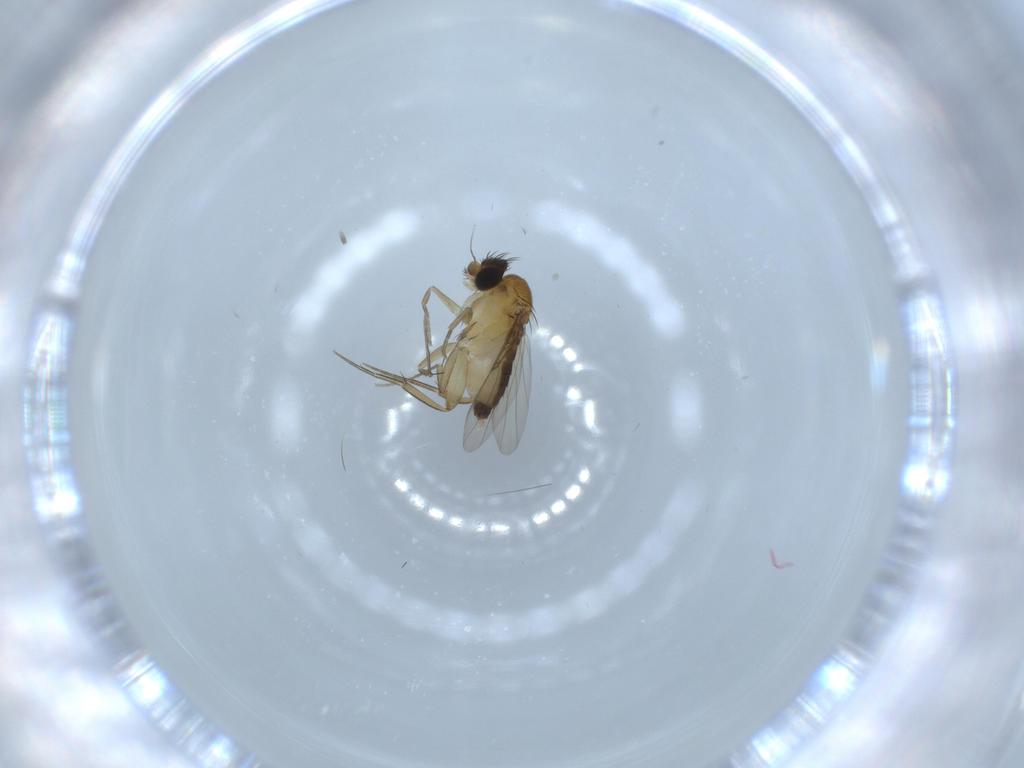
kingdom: Animalia
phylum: Arthropoda
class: Insecta
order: Diptera
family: Phoridae
